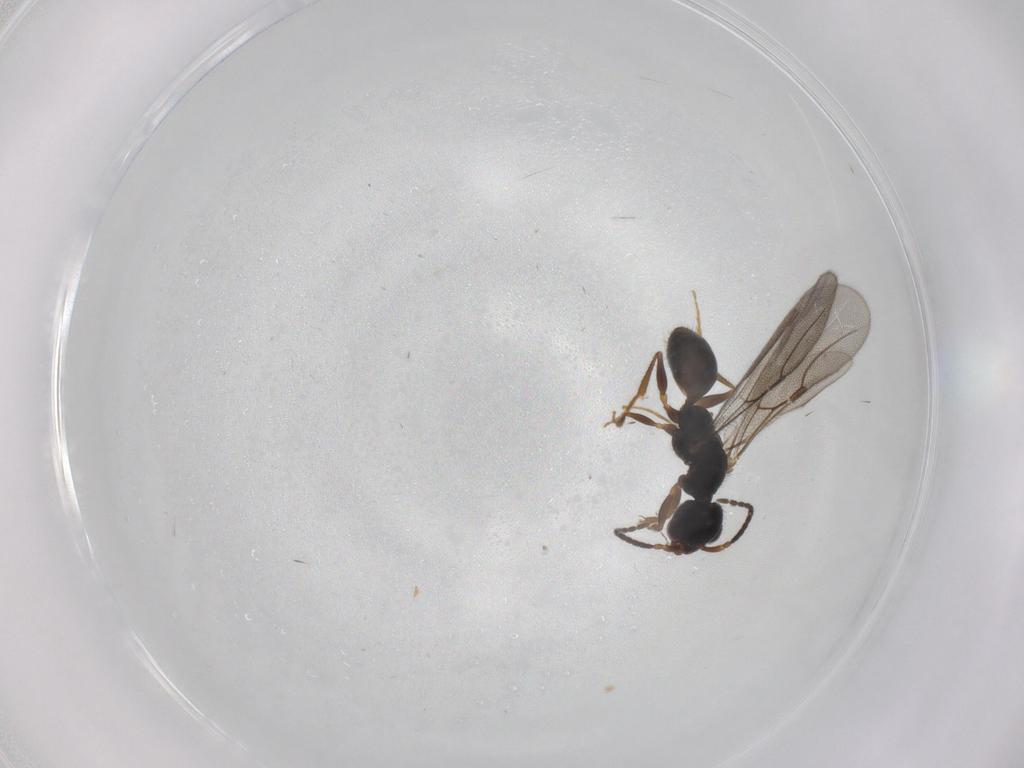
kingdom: Animalia
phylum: Arthropoda
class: Insecta
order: Hymenoptera
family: Bethylidae
